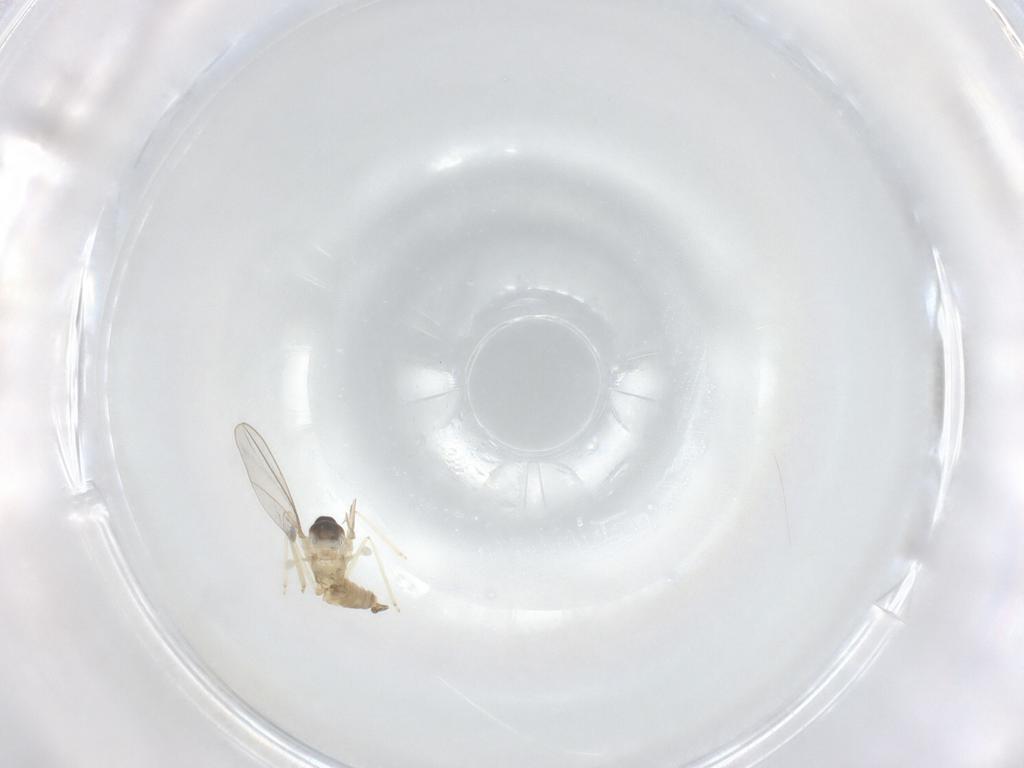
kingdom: Animalia
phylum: Arthropoda
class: Insecta
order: Diptera
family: Cecidomyiidae
